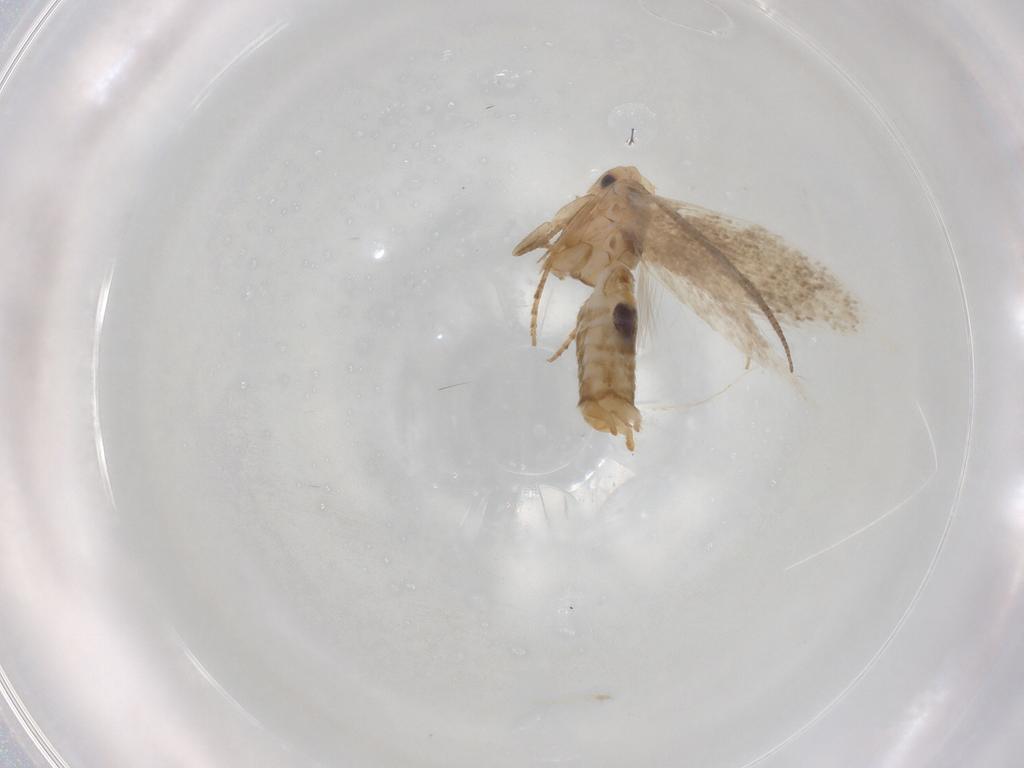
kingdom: Animalia
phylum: Arthropoda
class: Insecta
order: Lepidoptera
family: Bucculatricidae
